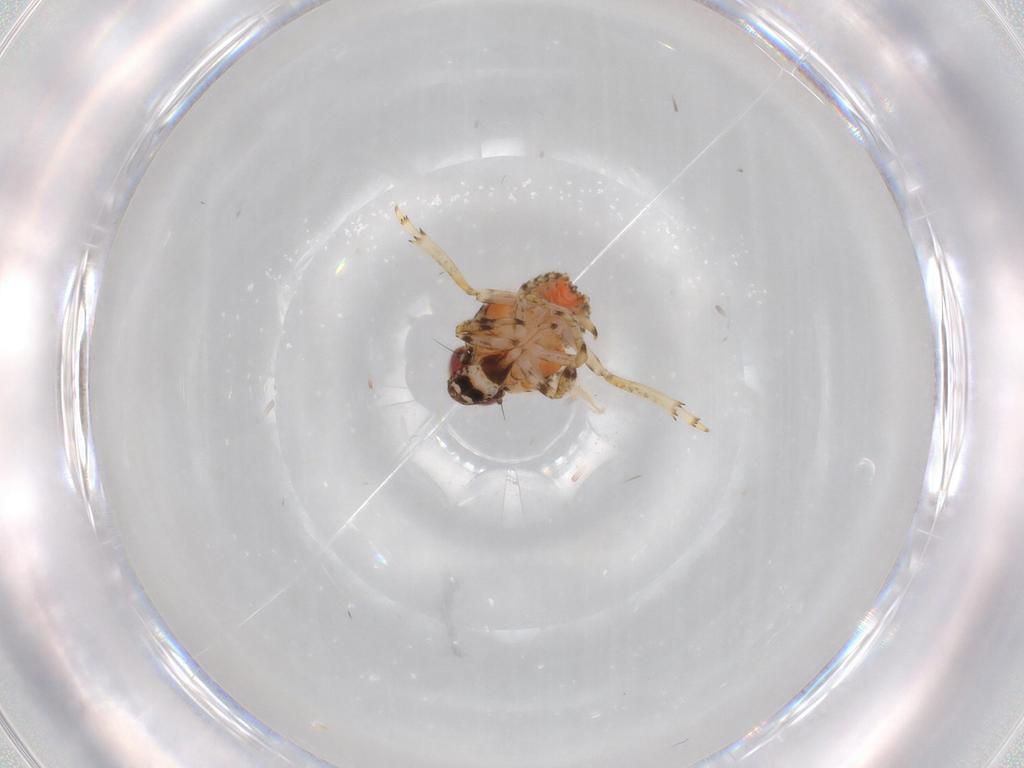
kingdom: Animalia
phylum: Arthropoda
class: Insecta
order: Hemiptera
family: Issidae
